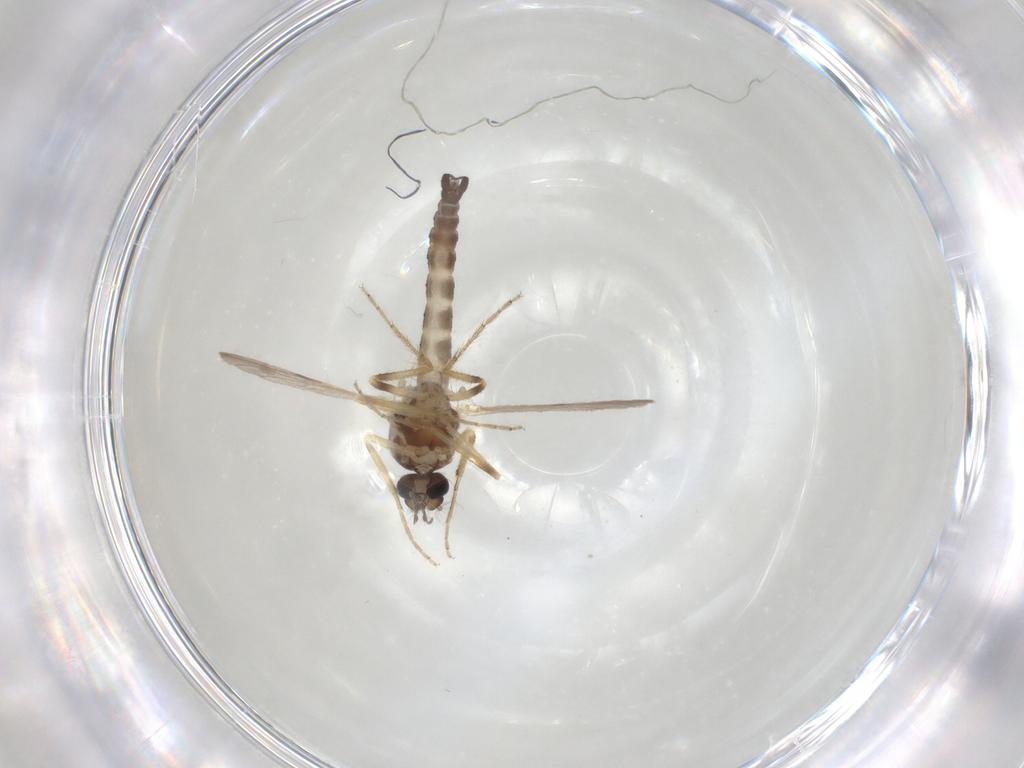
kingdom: Animalia
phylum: Arthropoda
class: Insecta
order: Diptera
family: Ceratopogonidae
